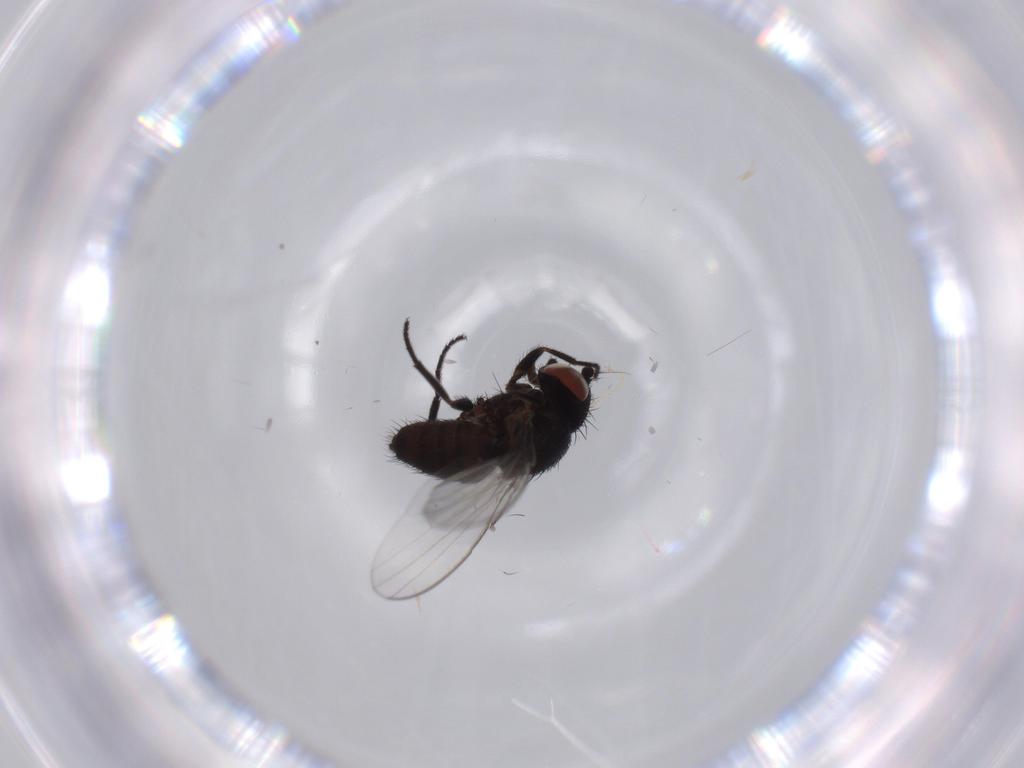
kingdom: Animalia
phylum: Arthropoda
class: Insecta
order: Diptera
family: Milichiidae
